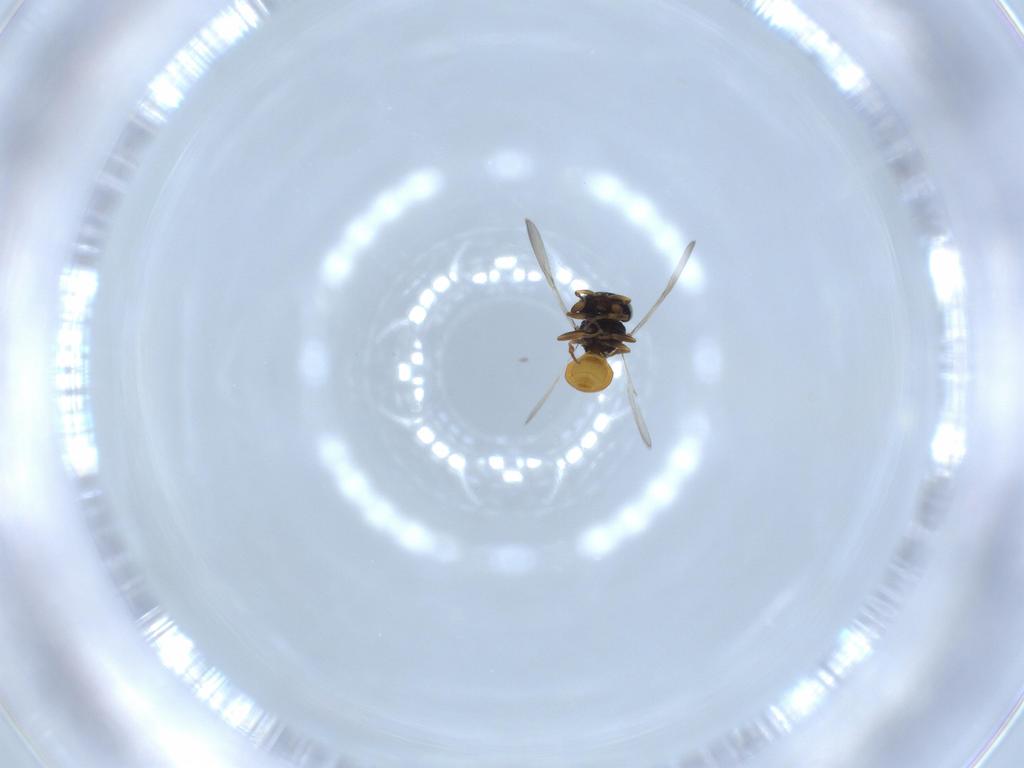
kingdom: Animalia
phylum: Arthropoda
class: Insecta
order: Hymenoptera
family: Scelionidae
